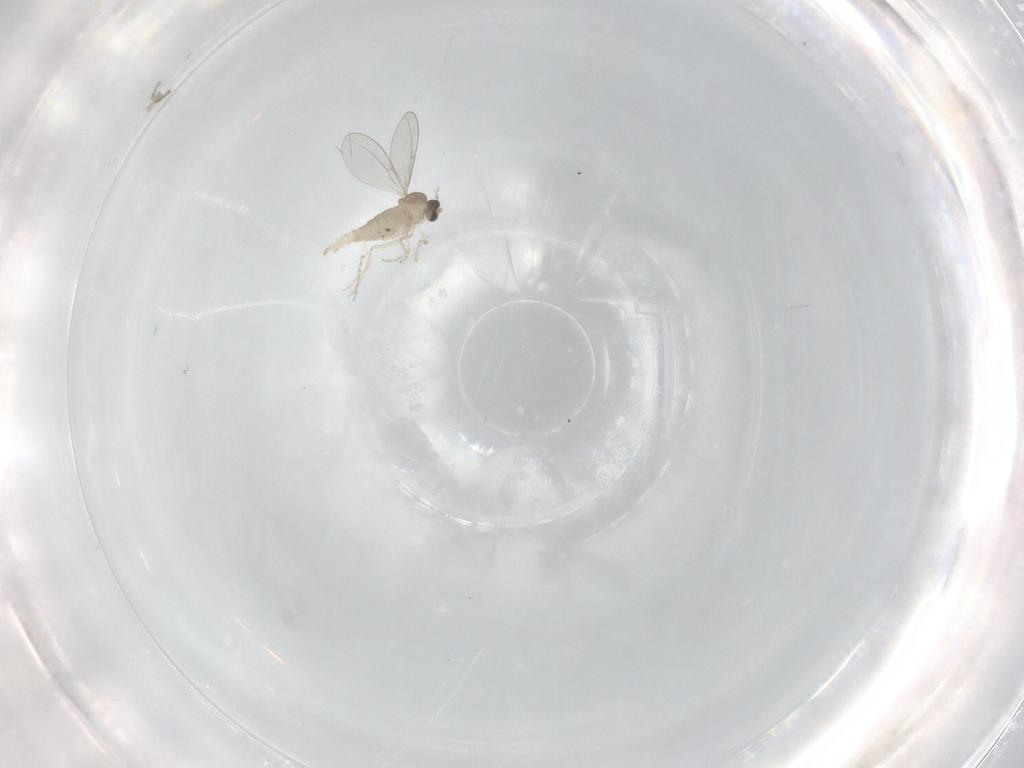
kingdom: Animalia
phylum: Arthropoda
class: Insecta
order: Diptera
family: Cecidomyiidae
